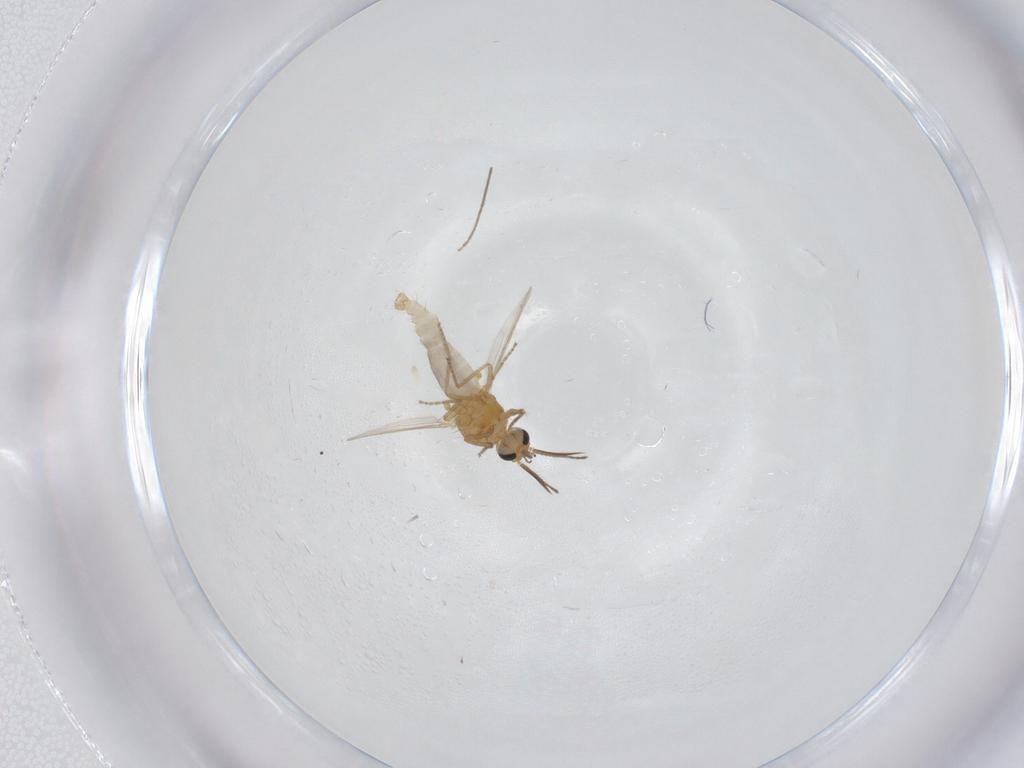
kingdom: Animalia
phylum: Arthropoda
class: Insecta
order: Diptera
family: Ceratopogonidae
